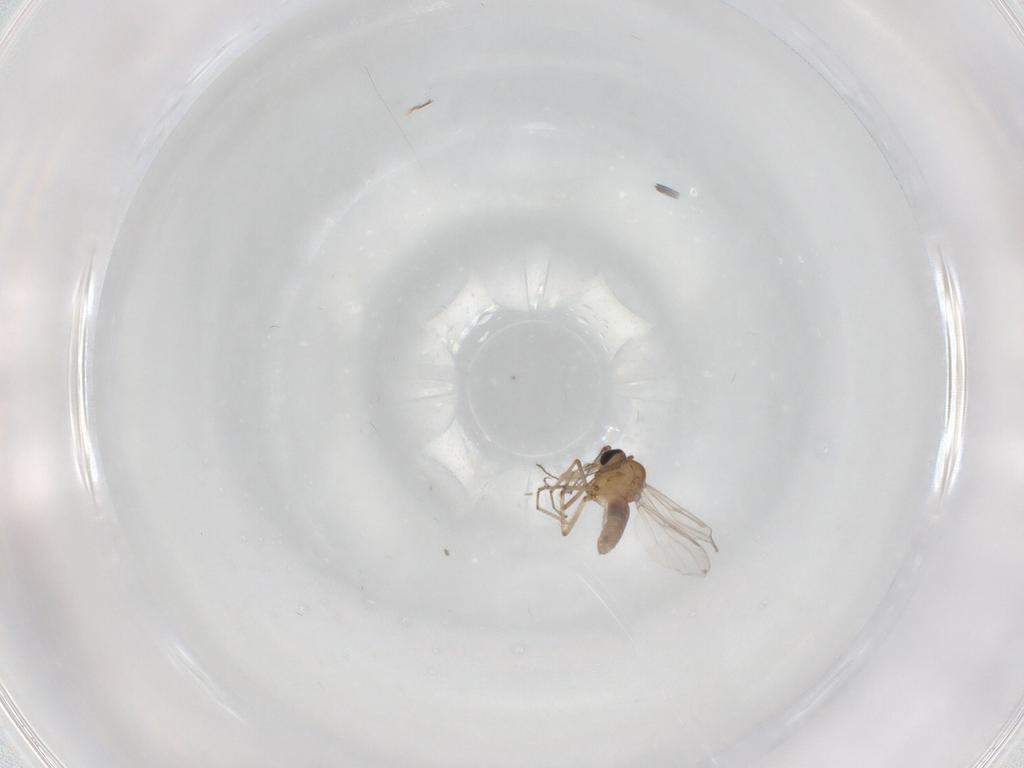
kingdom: Animalia
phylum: Arthropoda
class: Insecta
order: Diptera
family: Ceratopogonidae
